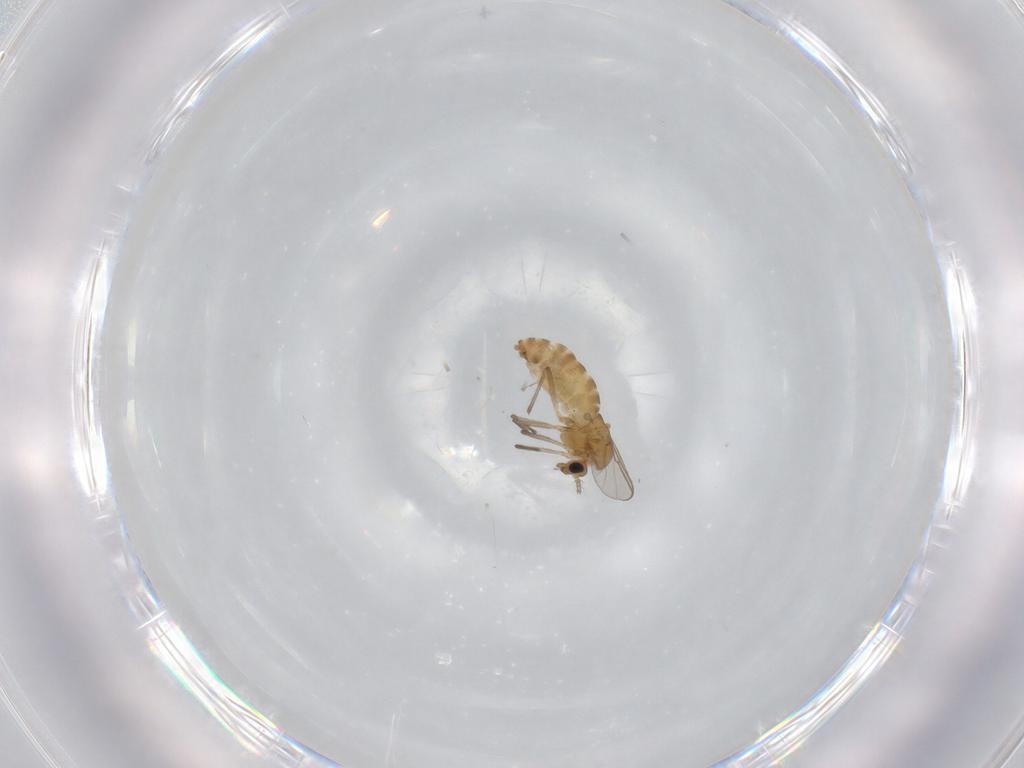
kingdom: Animalia
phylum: Arthropoda
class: Insecta
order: Diptera
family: Chironomidae
